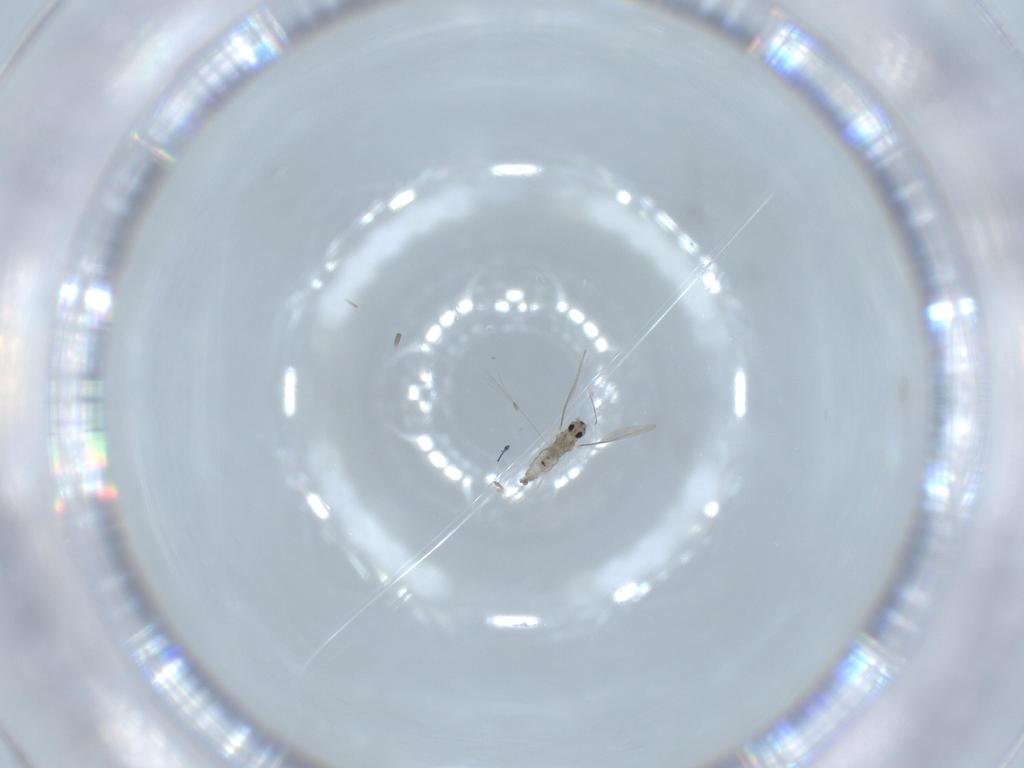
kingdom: Animalia
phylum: Arthropoda
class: Insecta
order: Diptera
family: Cecidomyiidae
